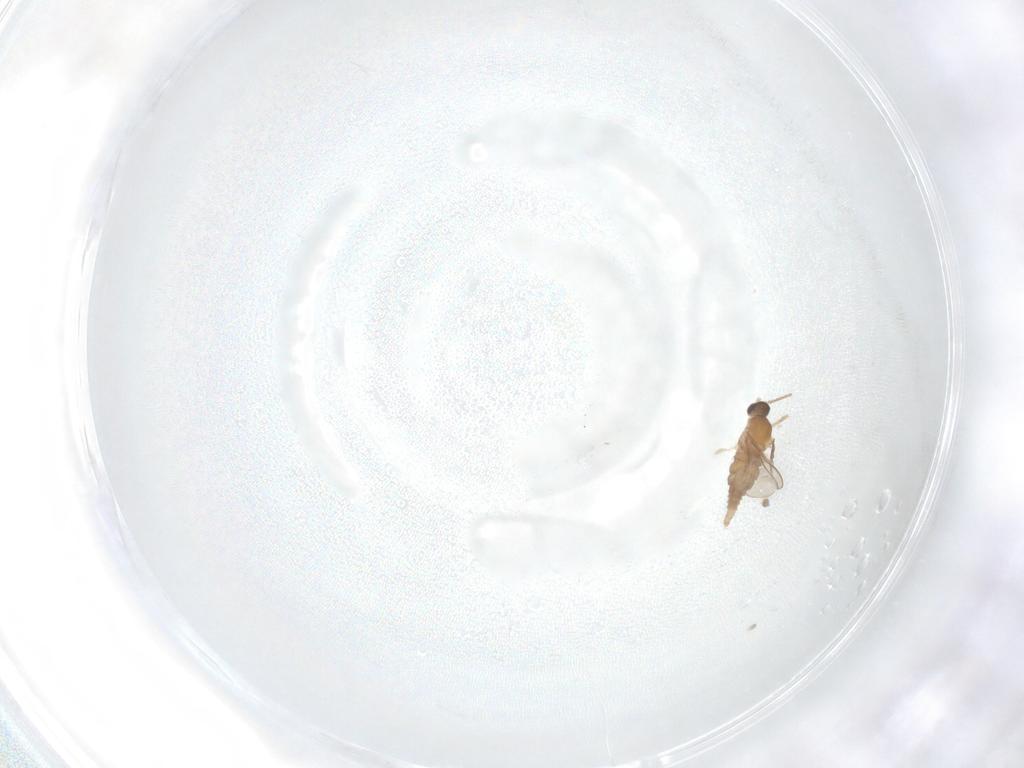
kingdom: Animalia
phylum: Arthropoda
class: Insecta
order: Diptera
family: Cecidomyiidae
